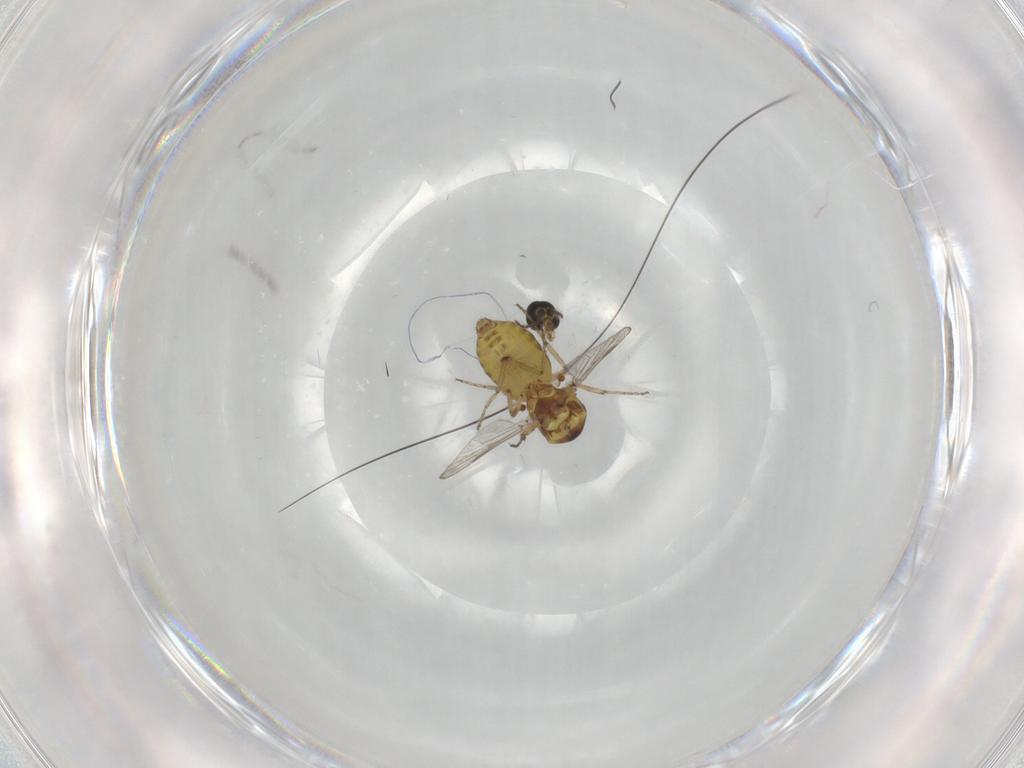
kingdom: Animalia
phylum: Arthropoda
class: Insecta
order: Diptera
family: Ceratopogonidae
